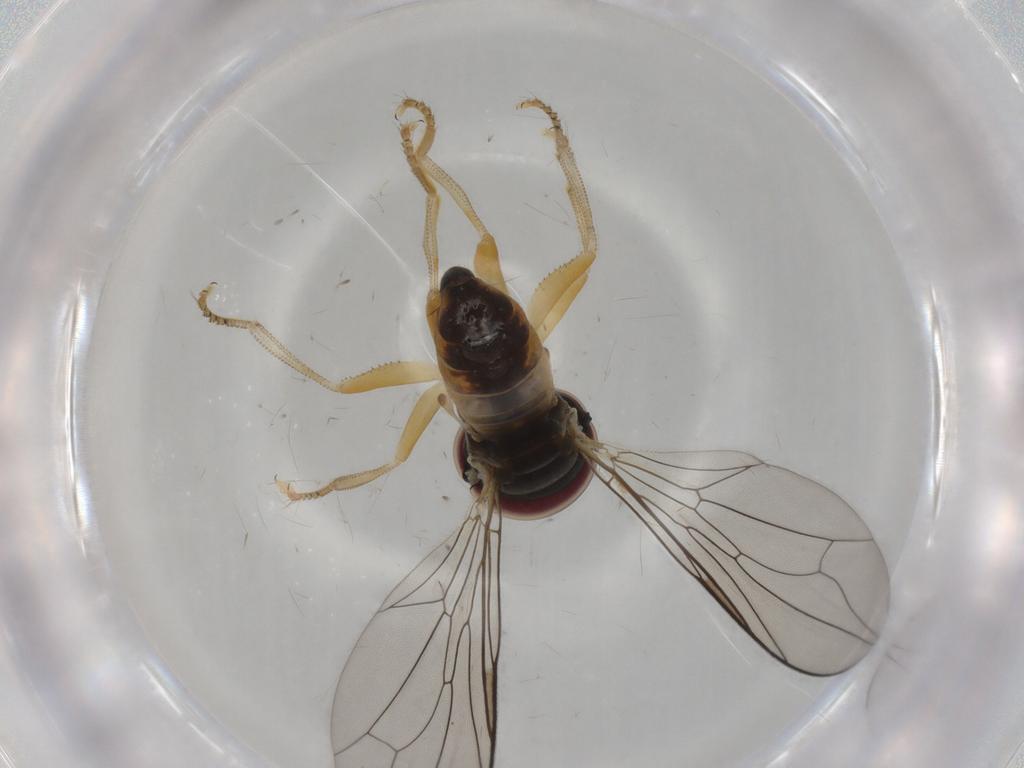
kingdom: Animalia
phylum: Arthropoda
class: Insecta
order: Diptera
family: Pipunculidae
